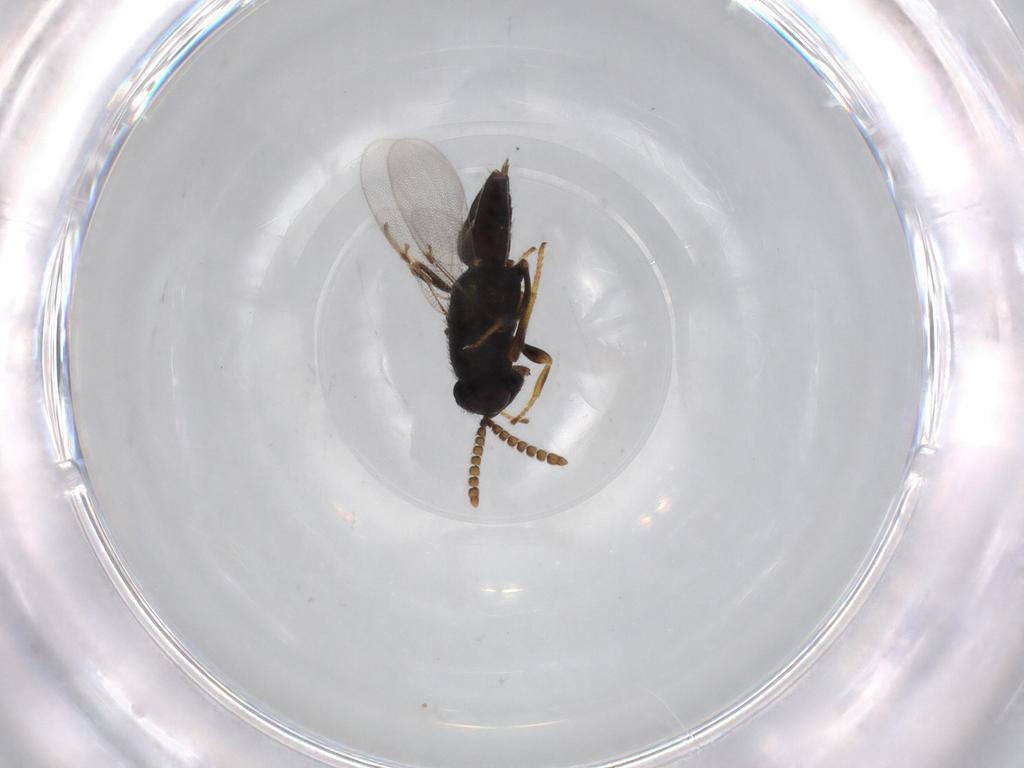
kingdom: Animalia
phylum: Arthropoda
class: Insecta
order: Hymenoptera
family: Encyrtidae
